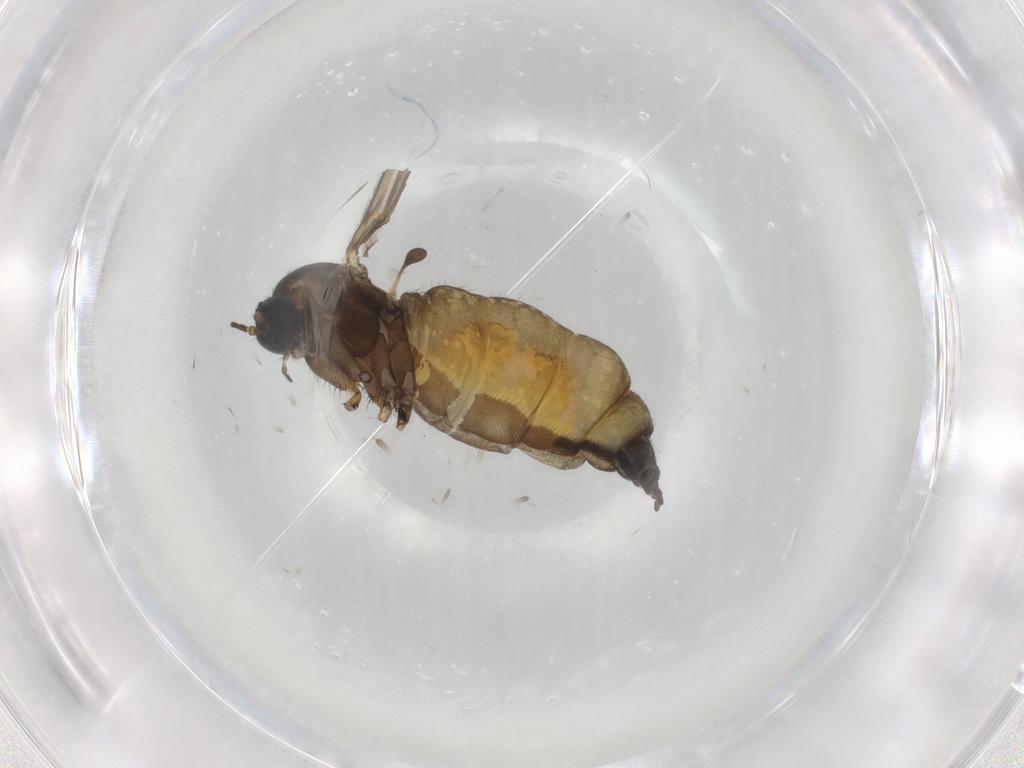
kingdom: Animalia
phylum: Arthropoda
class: Insecta
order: Diptera
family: Sciaridae
